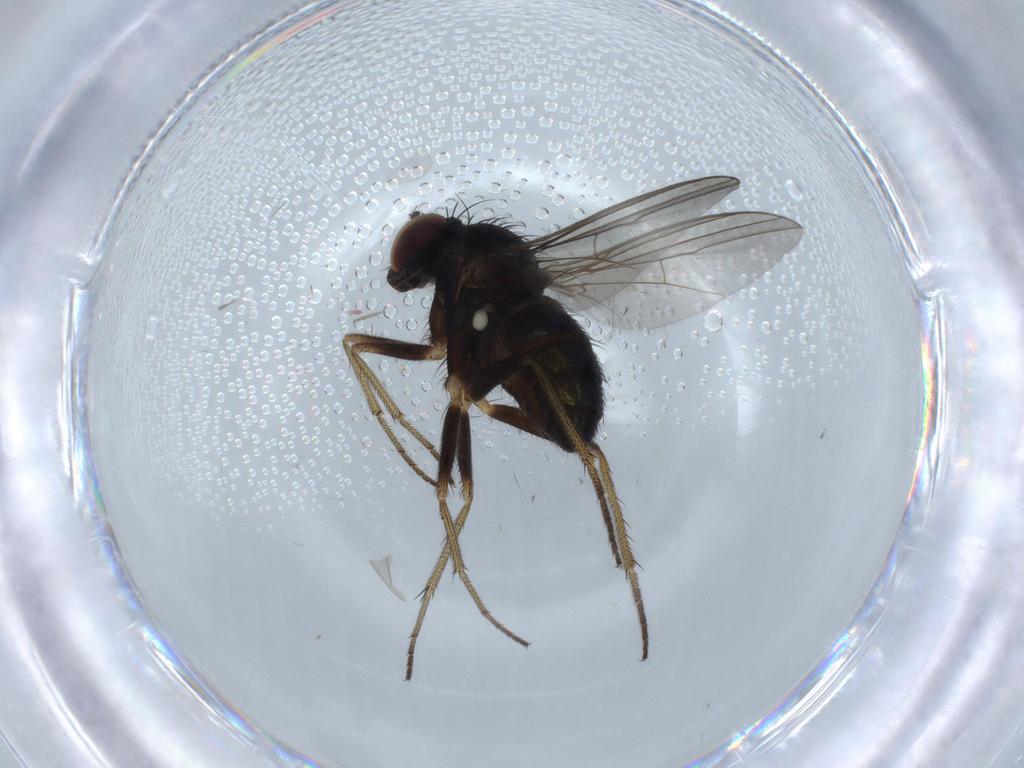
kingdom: Animalia
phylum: Arthropoda
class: Insecta
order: Diptera
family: Dolichopodidae
